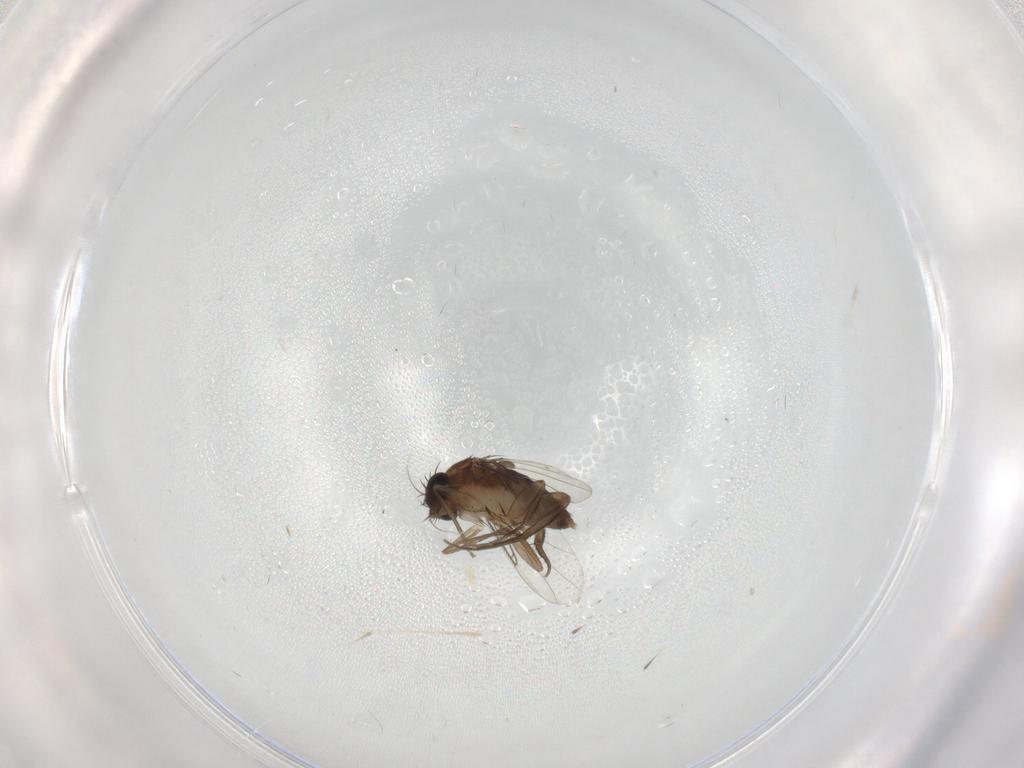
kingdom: Animalia
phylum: Arthropoda
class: Insecta
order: Diptera
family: Phoridae
